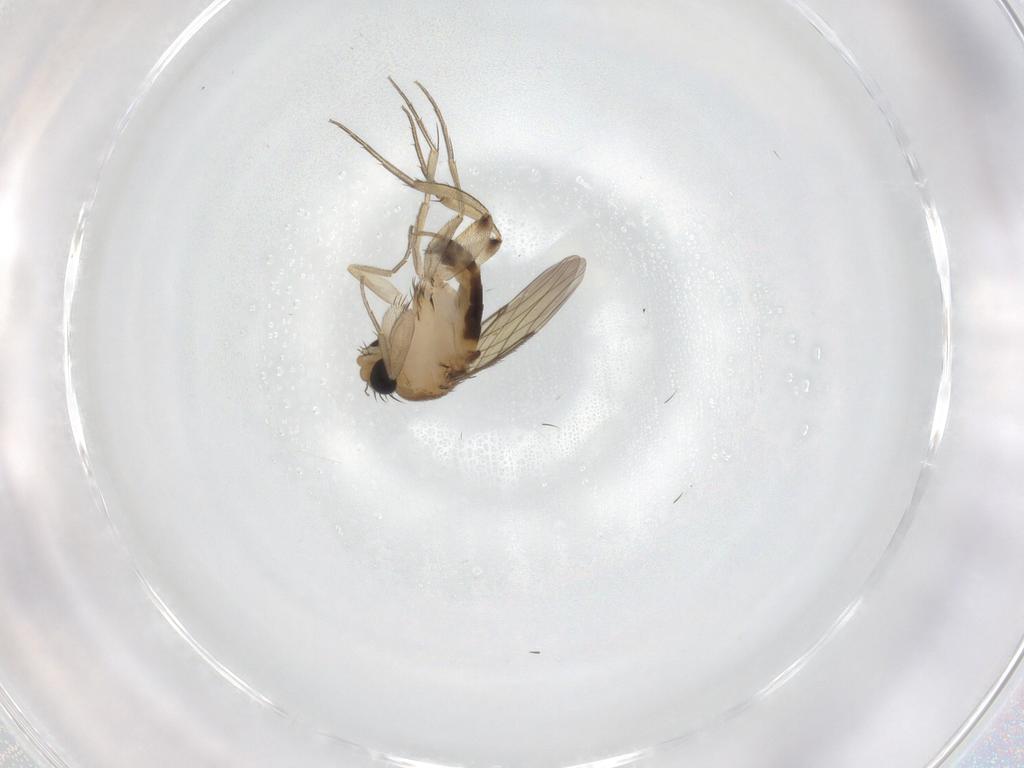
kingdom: Animalia
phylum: Arthropoda
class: Insecta
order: Diptera
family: Phoridae
